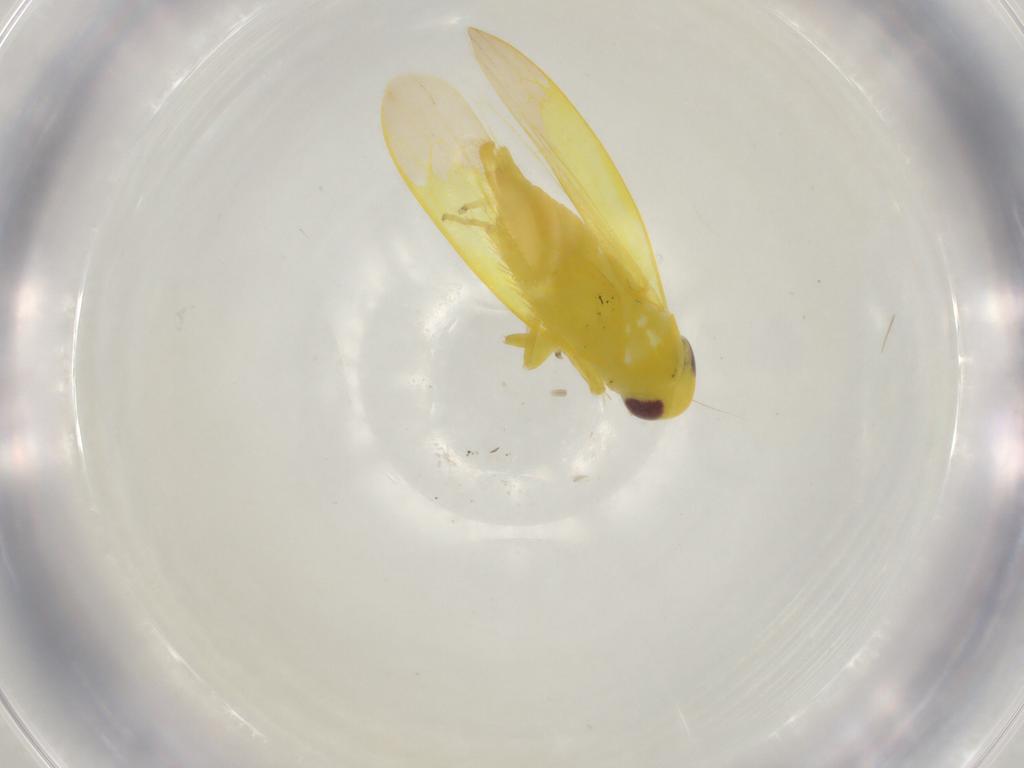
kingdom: Animalia
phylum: Arthropoda
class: Insecta
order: Hemiptera
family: Cicadellidae
